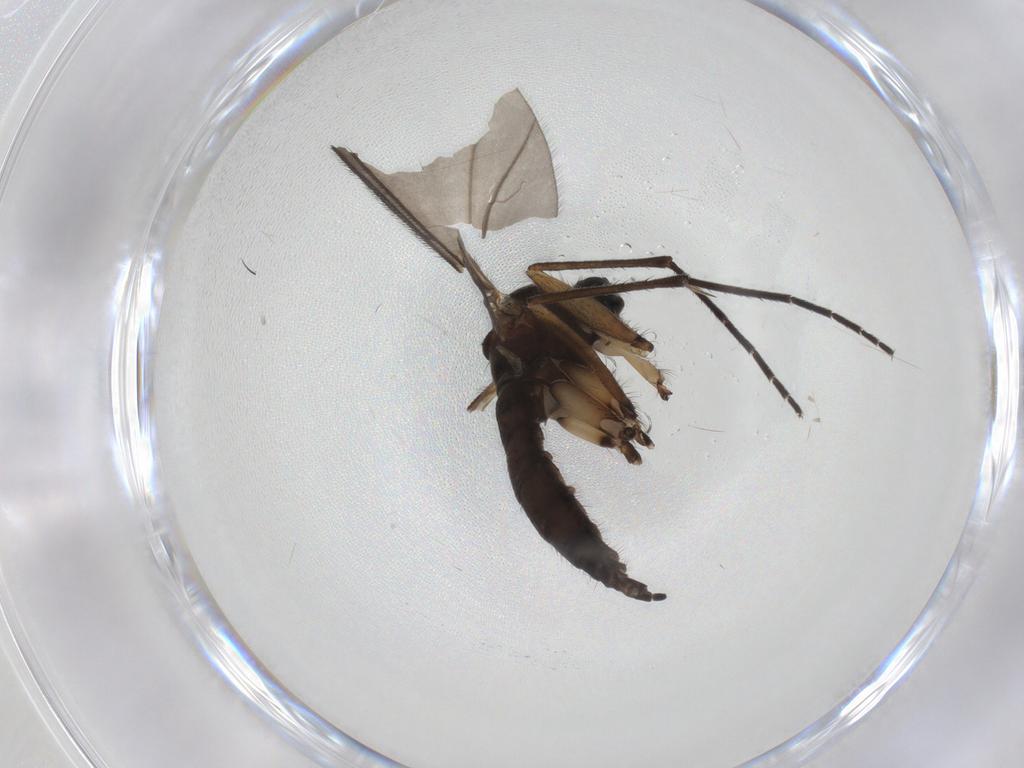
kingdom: Animalia
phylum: Arthropoda
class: Insecta
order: Diptera
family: Sciaridae
